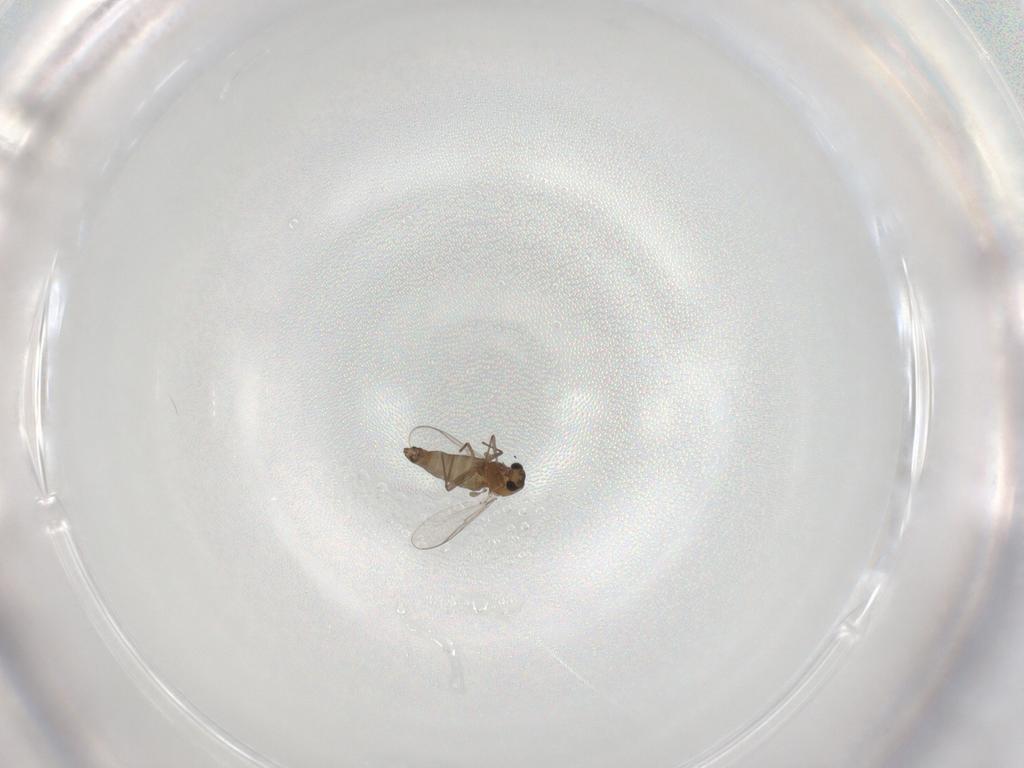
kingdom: Animalia
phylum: Arthropoda
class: Insecta
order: Diptera
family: Chironomidae
